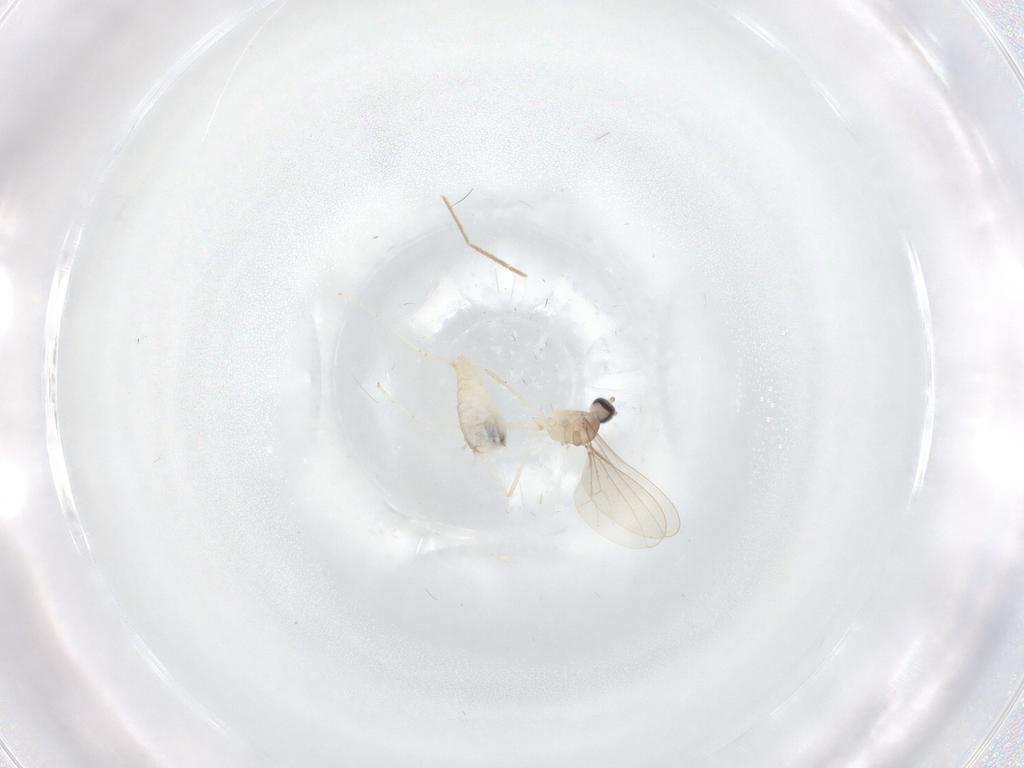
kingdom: Animalia
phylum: Arthropoda
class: Insecta
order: Diptera
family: Cecidomyiidae
